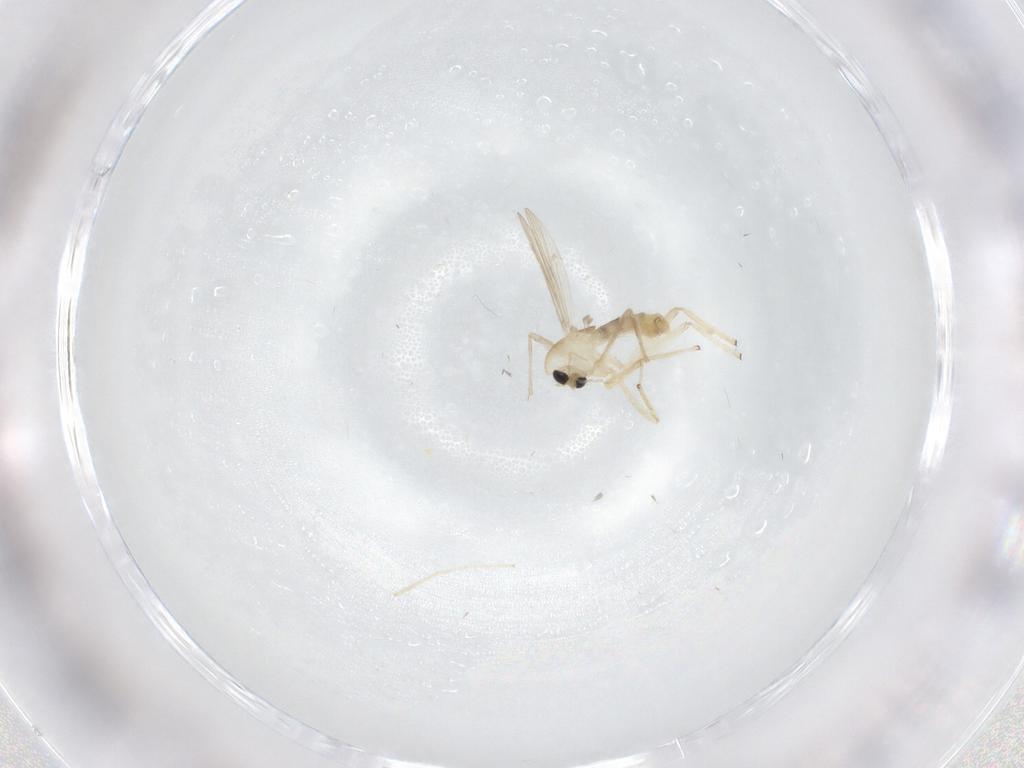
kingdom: Animalia
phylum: Arthropoda
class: Insecta
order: Diptera
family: Chironomidae
